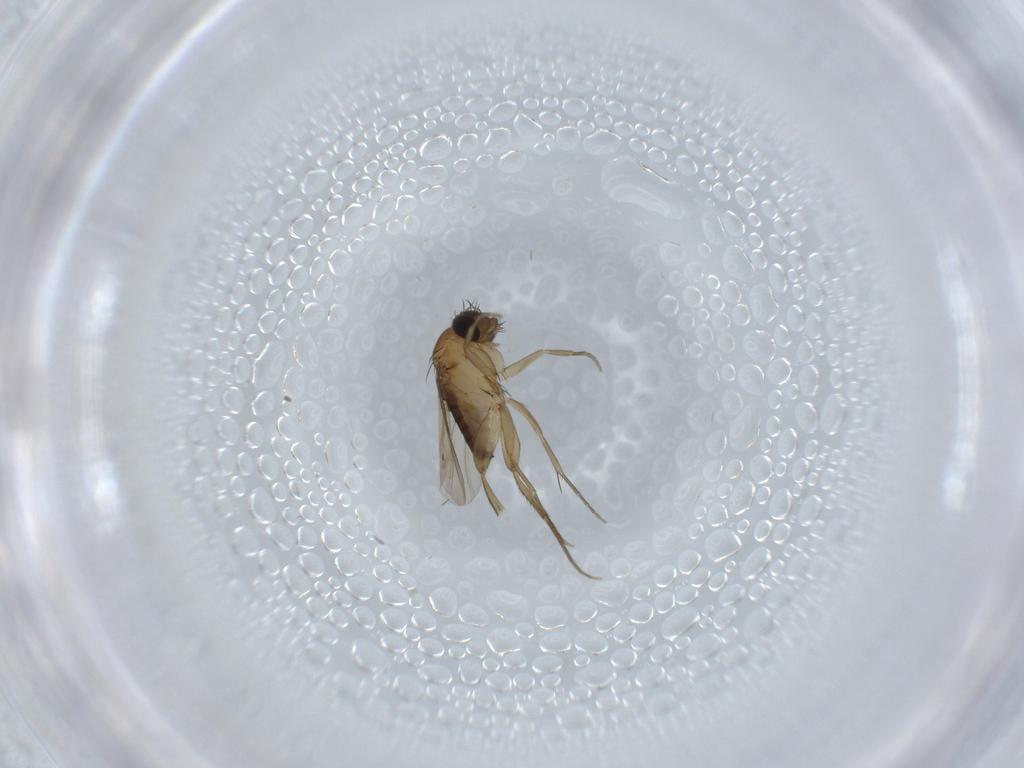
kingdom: Animalia
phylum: Arthropoda
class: Insecta
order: Diptera
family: Phoridae
